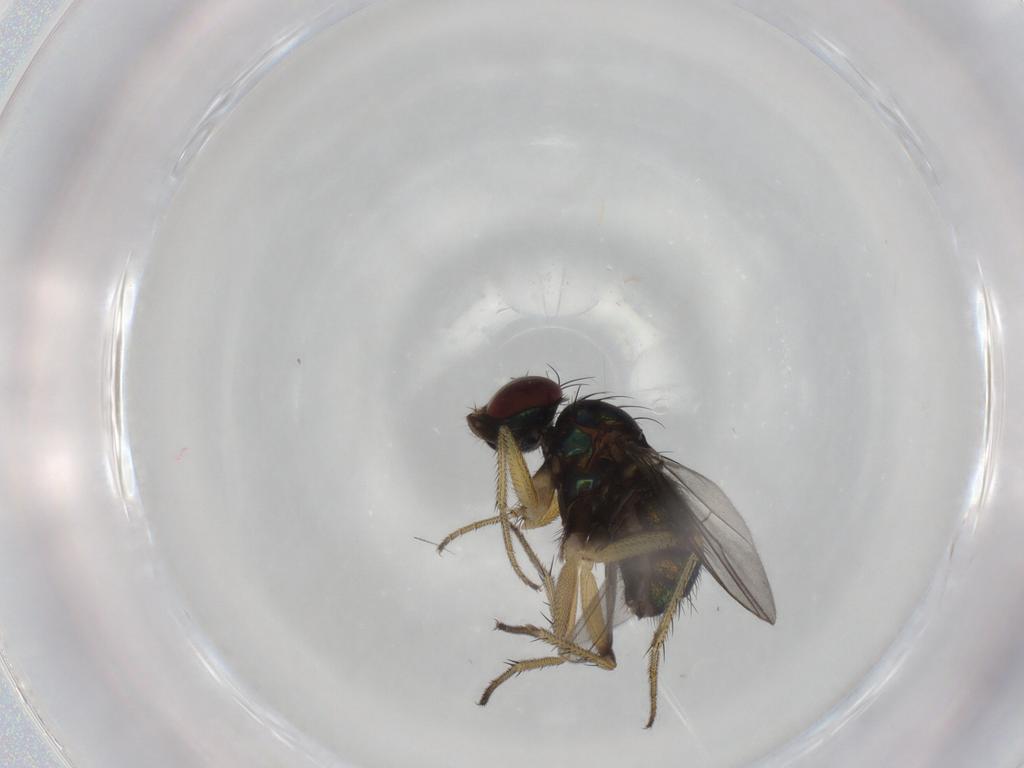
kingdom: Animalia
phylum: Arthropoda
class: Insecta
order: Diptera
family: Dolichopodidae
